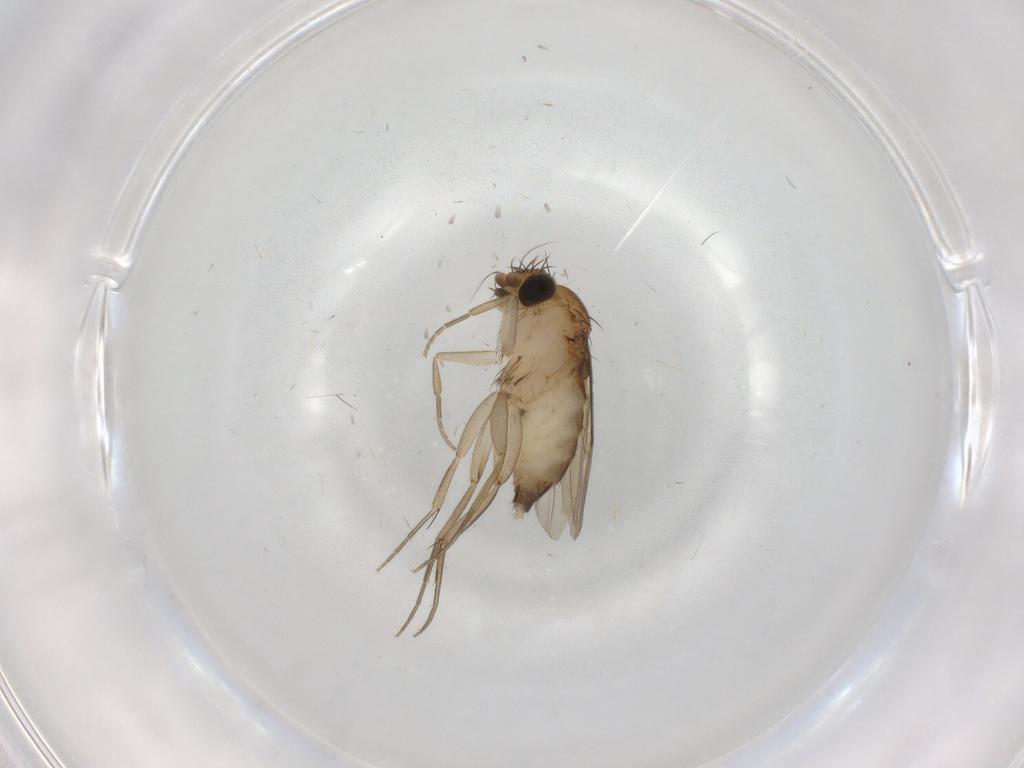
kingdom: Animalia
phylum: Arthropoda
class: Insecta
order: Diptera
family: Phoridae
